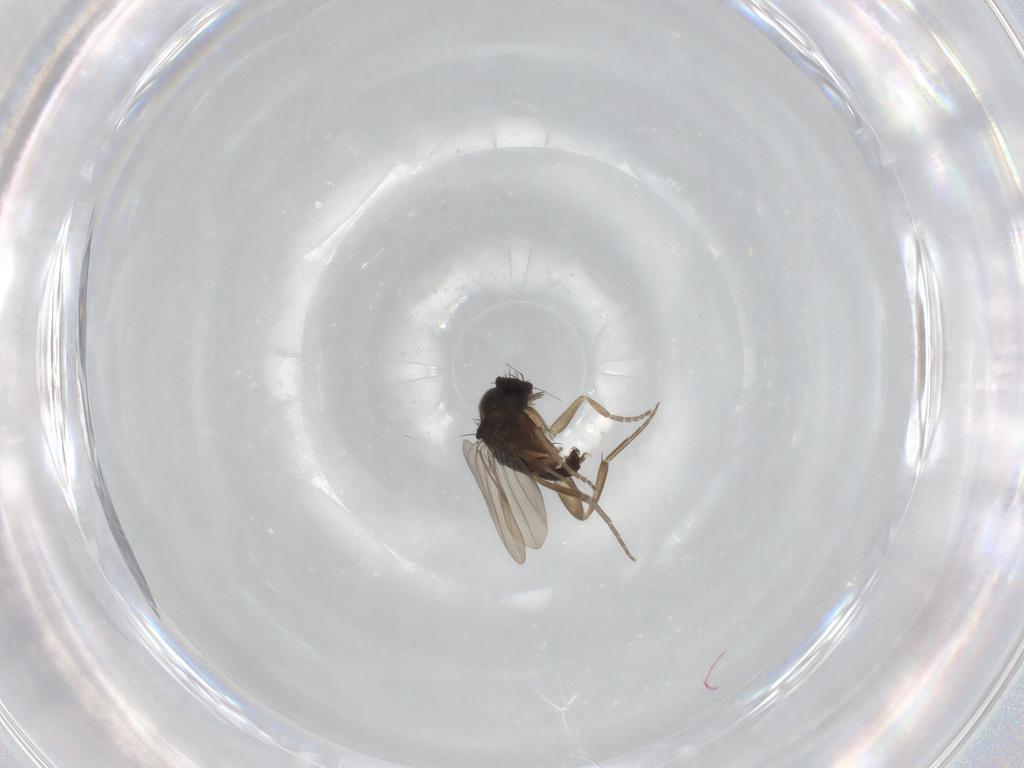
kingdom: Animalia
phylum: Arthropoda
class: Insecta
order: Diptera
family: Phoridae
